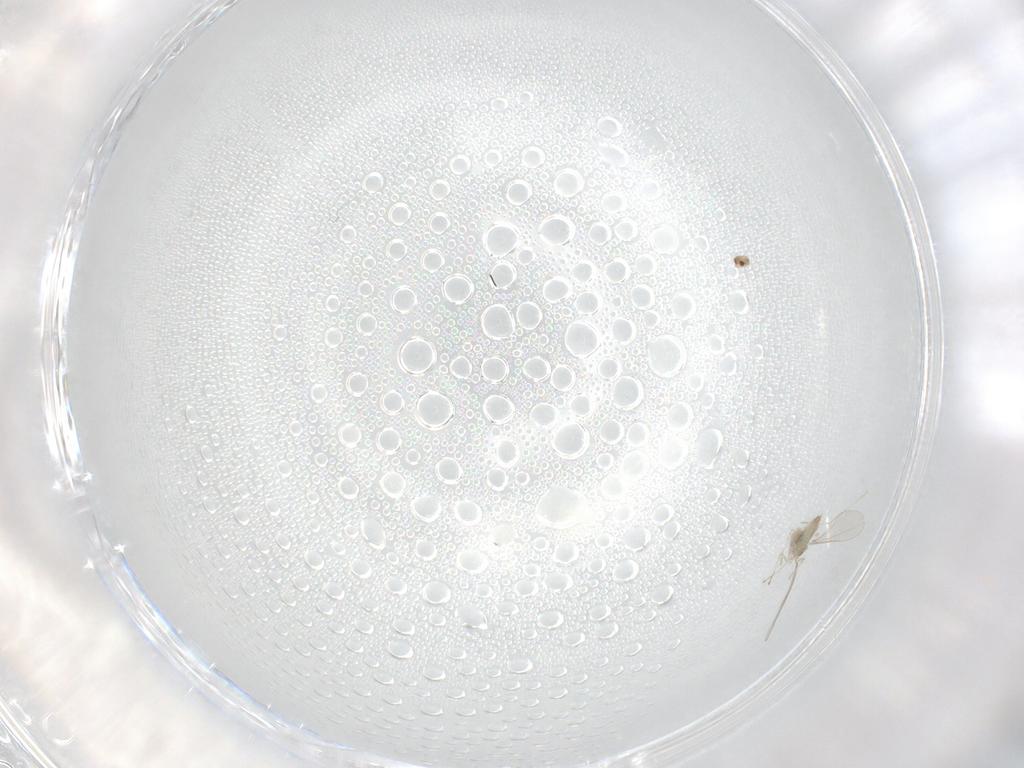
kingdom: Animalia
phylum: Arthropoda
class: Insecta
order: Diptera
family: Cecidomyiidae
